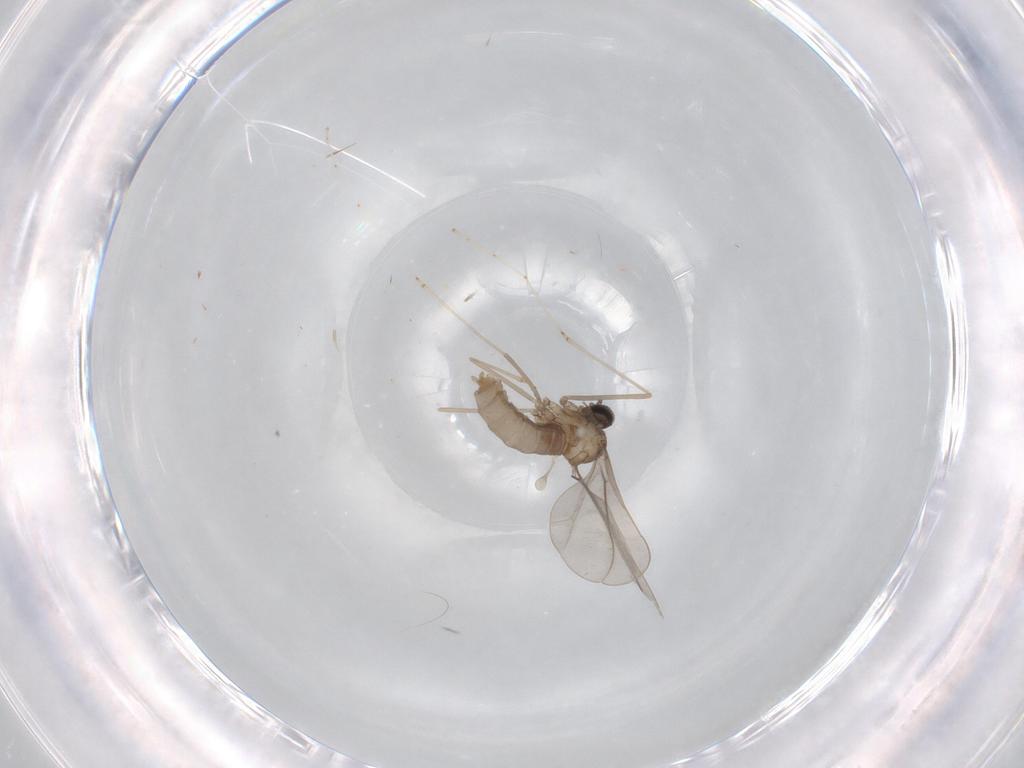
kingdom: Animalia
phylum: Arthropoda
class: Insecta
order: Diptera
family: Cecidomyiidae
